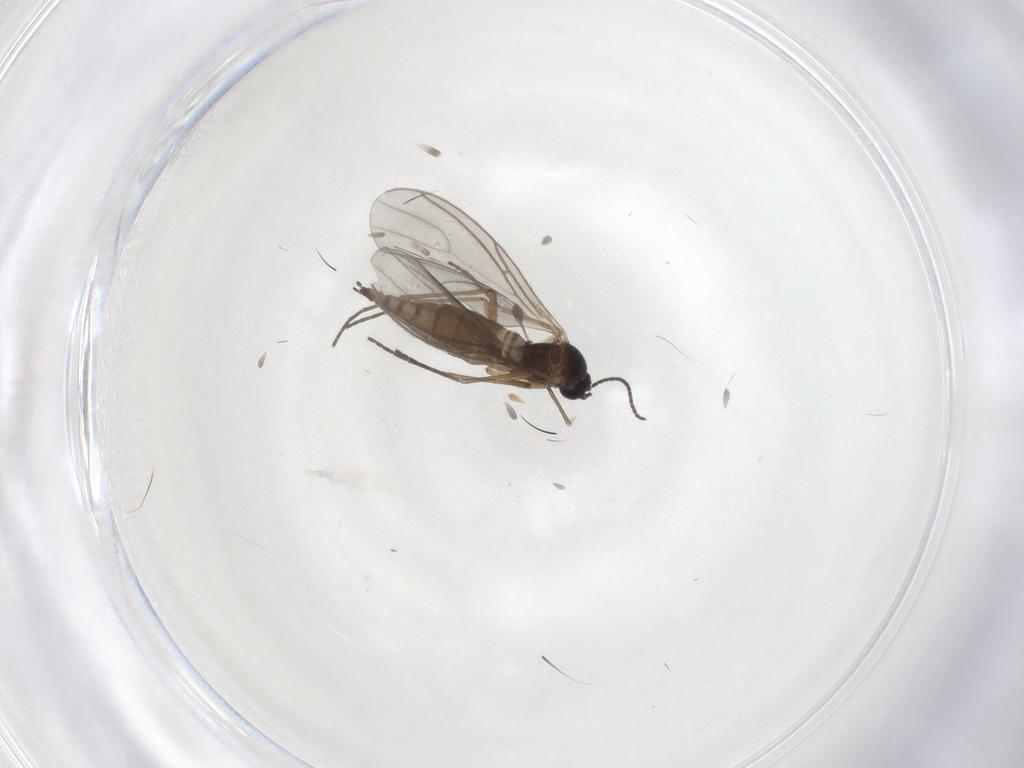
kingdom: Animalia
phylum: Arthropoda
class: Insecta
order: Diptera
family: Sciaridae
